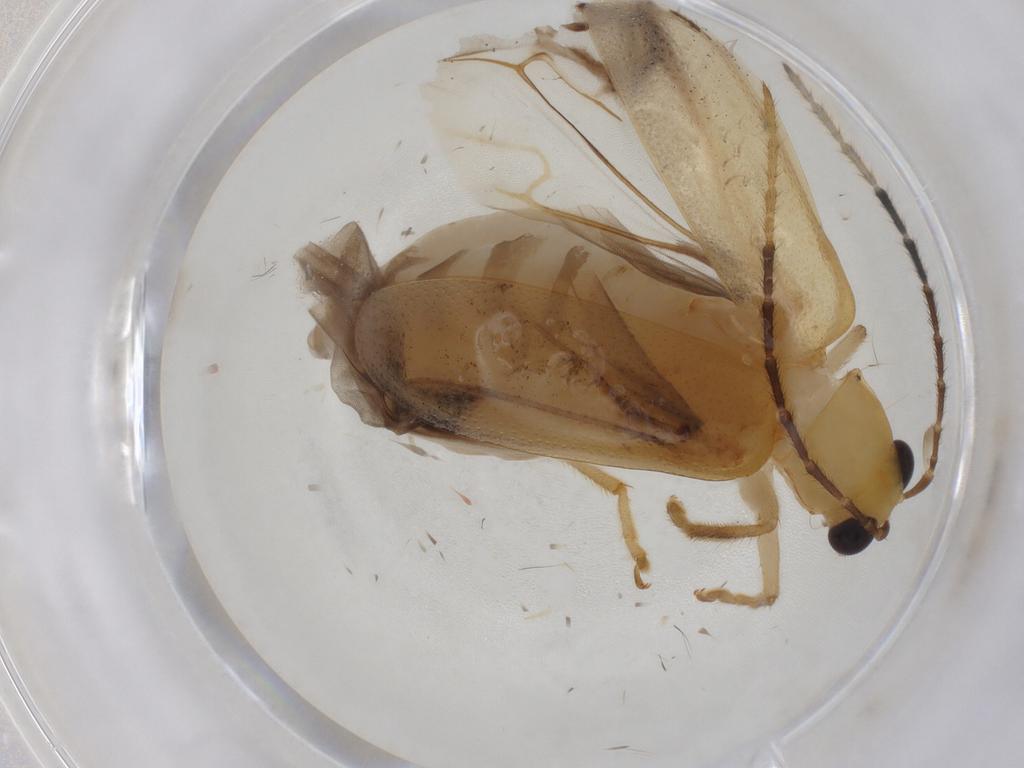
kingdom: Animalia
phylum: Arthropoda
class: Insecta
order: Coleoptera
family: Chrysomelidae
